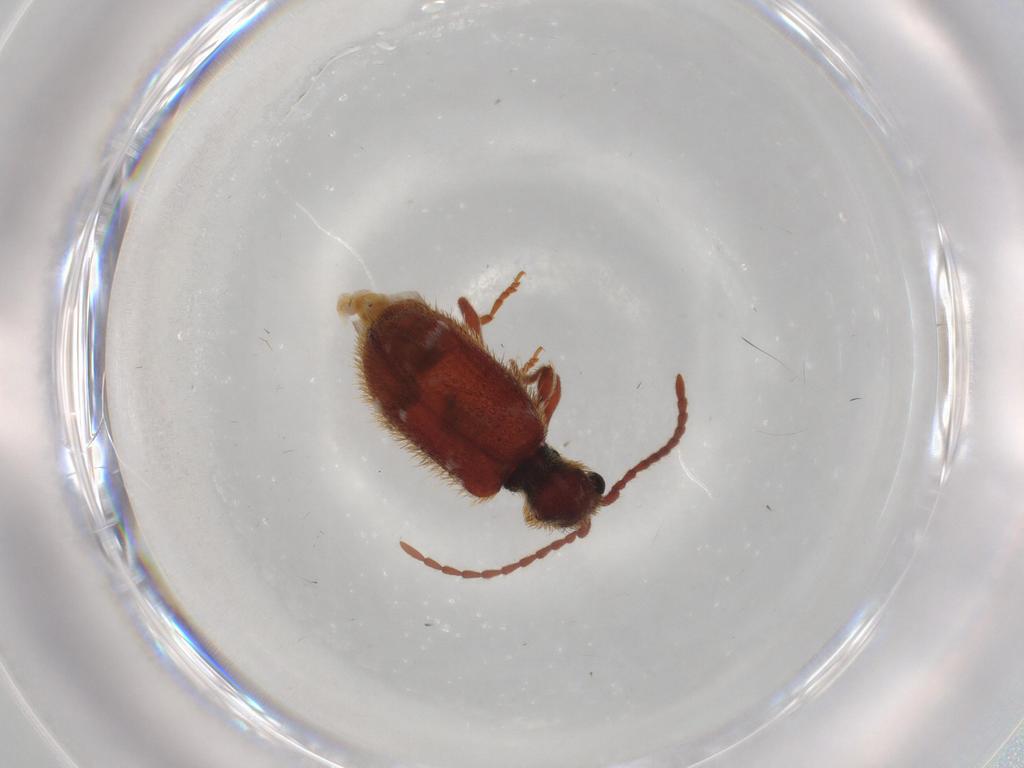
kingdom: Animalia
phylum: Arthropoda
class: Insecta
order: Coleoptera
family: Ptinidae
